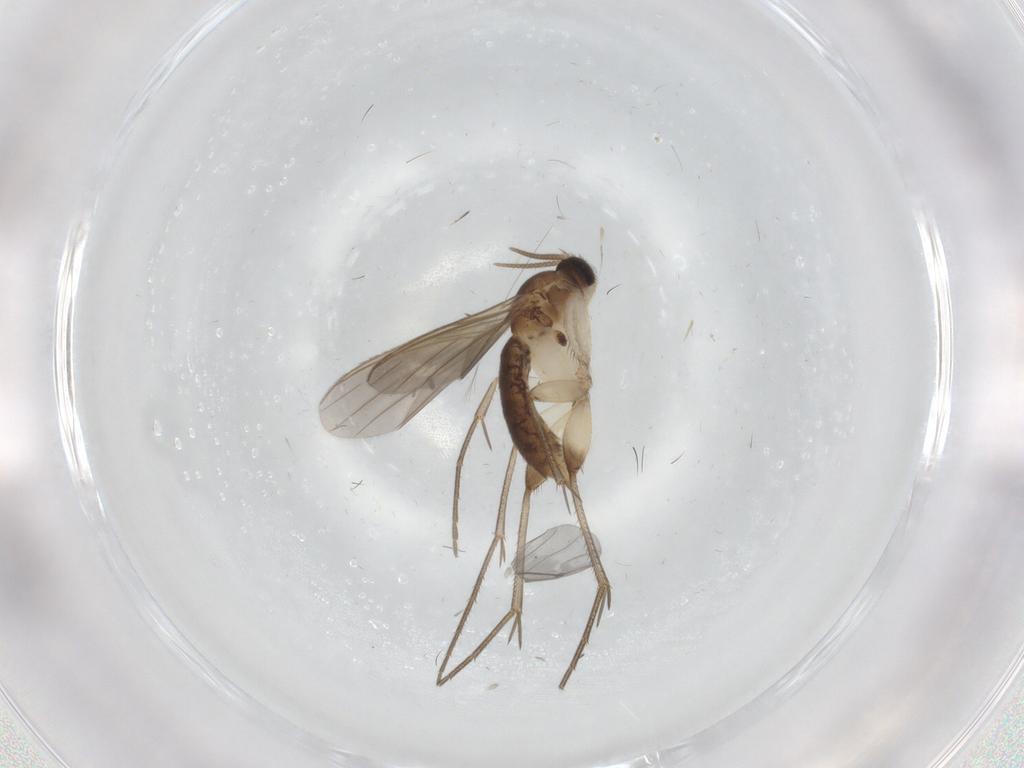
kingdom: Animalia
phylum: Arthropoda
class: Insecta
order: Diptera
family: Mycetophilidae
